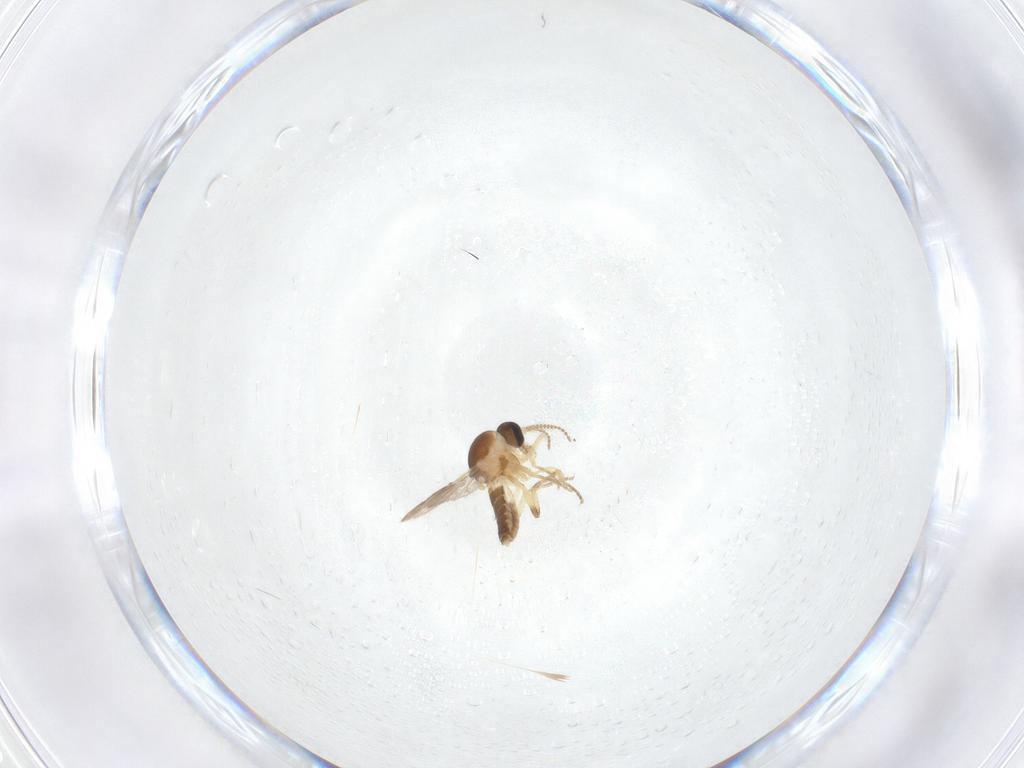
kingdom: Animalia
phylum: Arthropoda
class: Insecta
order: Diptera
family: Ceratopogonidae
